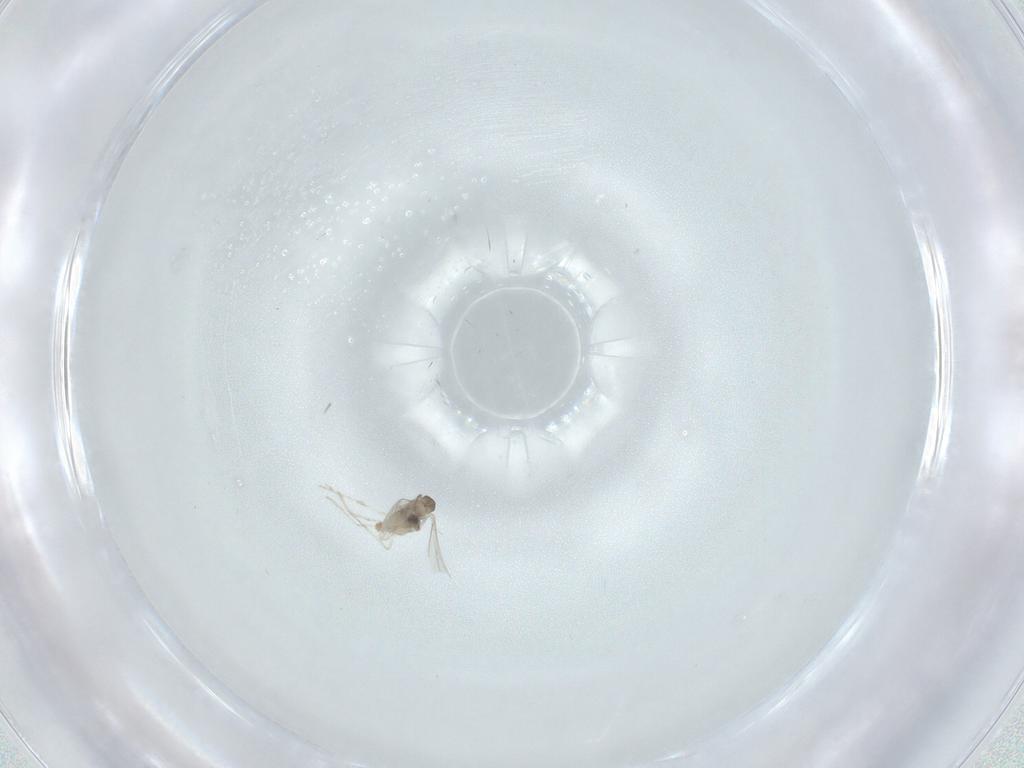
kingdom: Animalia
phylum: Arthropoda
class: Insecta
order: Diptera
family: Cecidomyiidae
